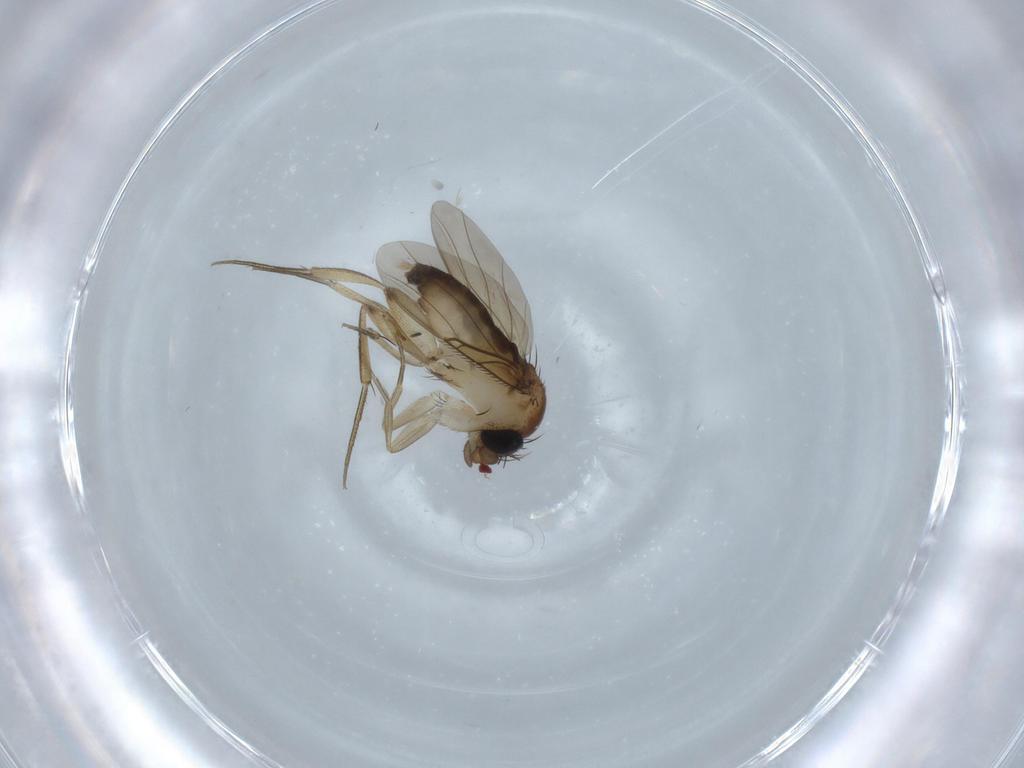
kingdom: Animalia
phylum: Arthropoda
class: Insecta
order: Diptera
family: Phoridae
